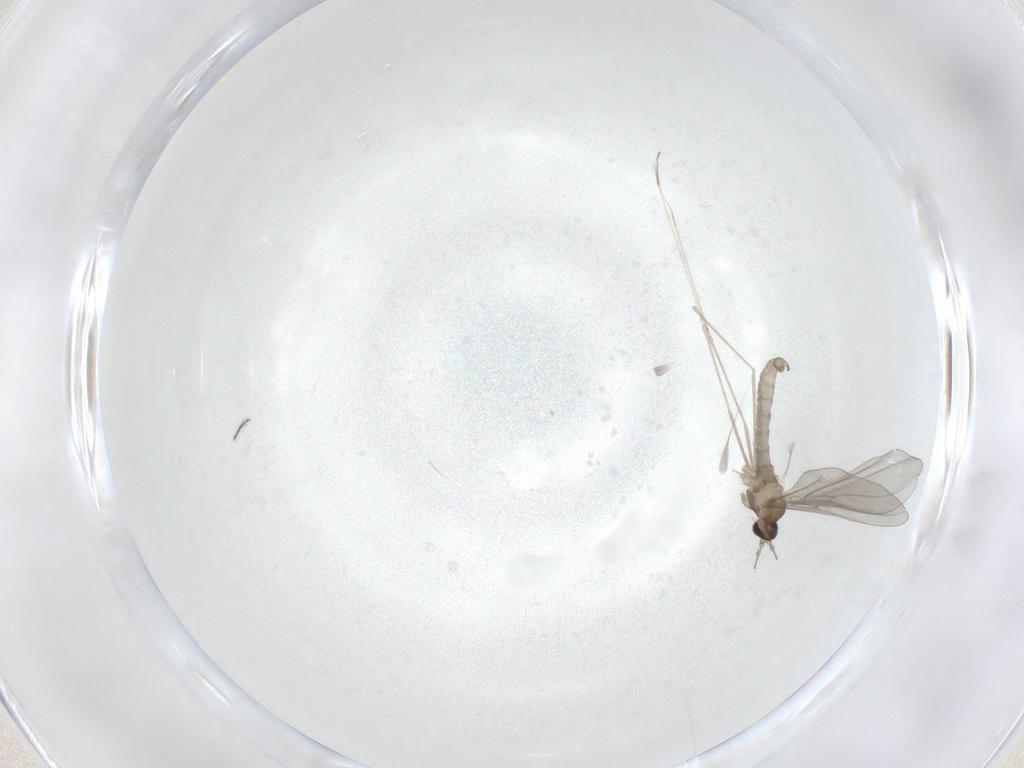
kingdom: Animalia
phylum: Arthropoda
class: Insecta
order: Diptera
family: Cecidomyiidae
